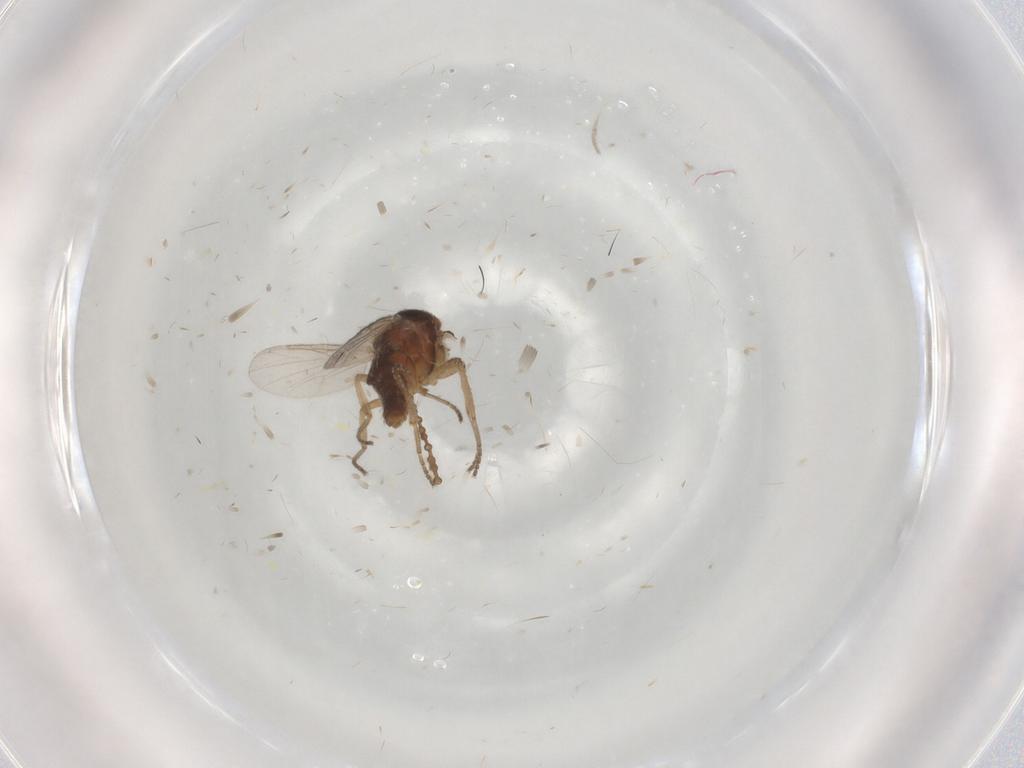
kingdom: Animalia
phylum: Arthropoda
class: Insecta
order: Diptera
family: Ceratopogonidae
